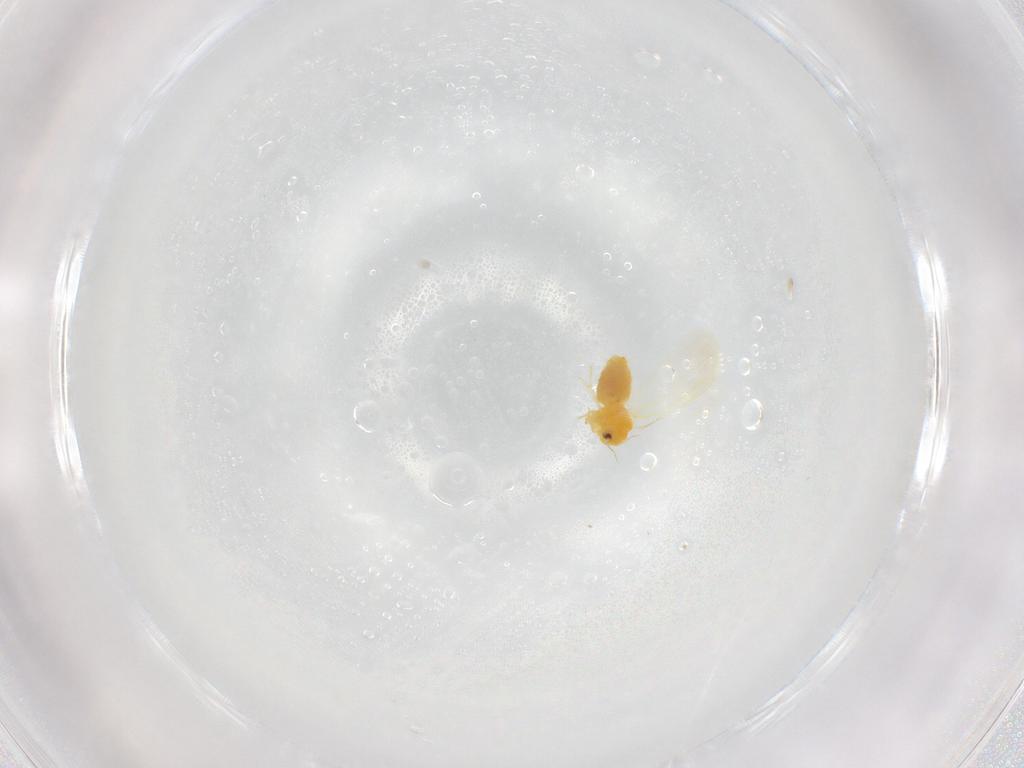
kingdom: Animalia
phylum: Arthropoda
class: Insecta
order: Hemiptera
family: Aleyrodidae
